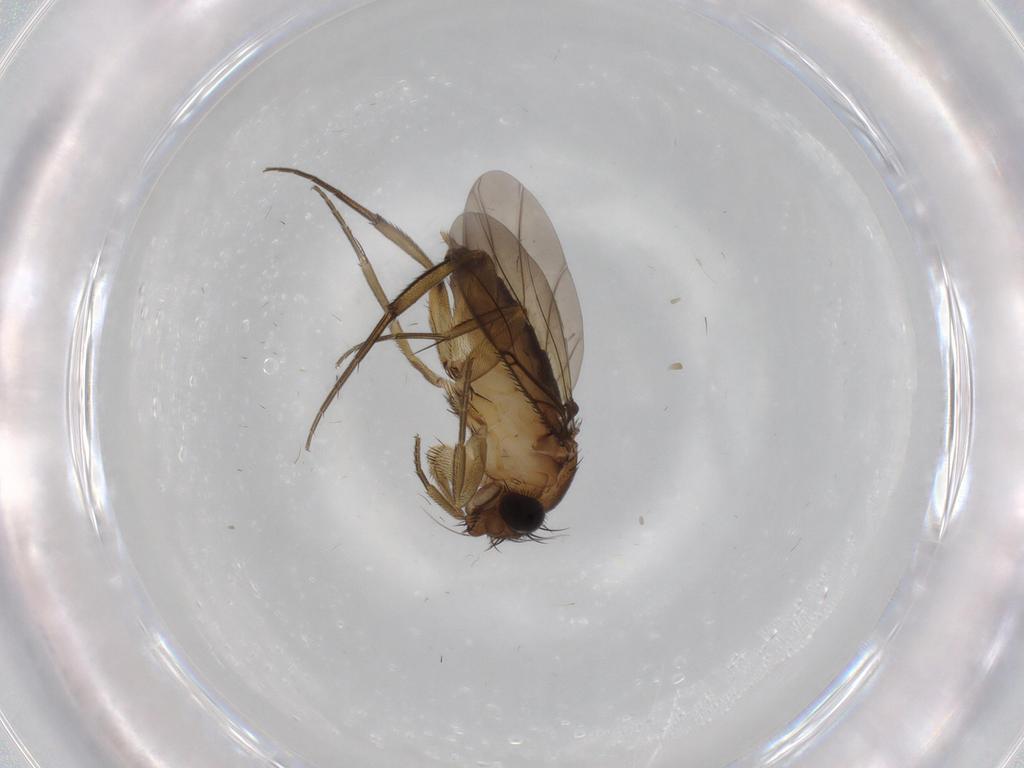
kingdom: Animalia
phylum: Arthropoda
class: Insecta
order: Diptera
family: Phoridae
